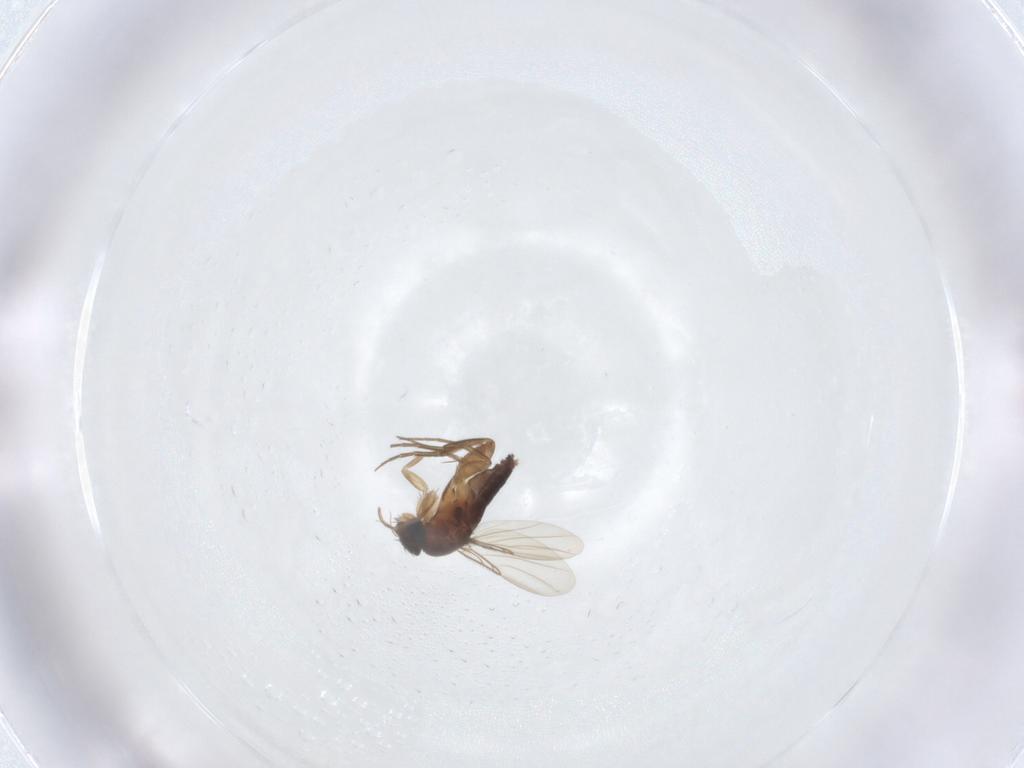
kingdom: Animalia
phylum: Arthropoda
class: Insecta
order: Diptera
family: Phoridae
